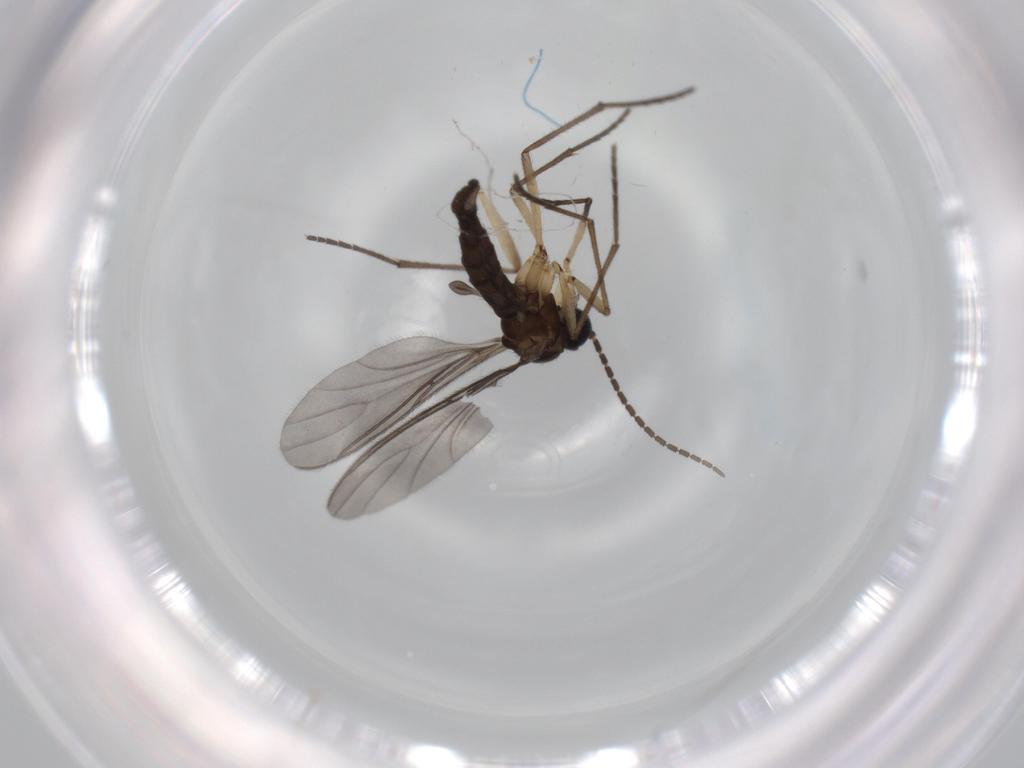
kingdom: Animalia
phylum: Arthropoda
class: Insecta
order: Diptera
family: Sciaridae
